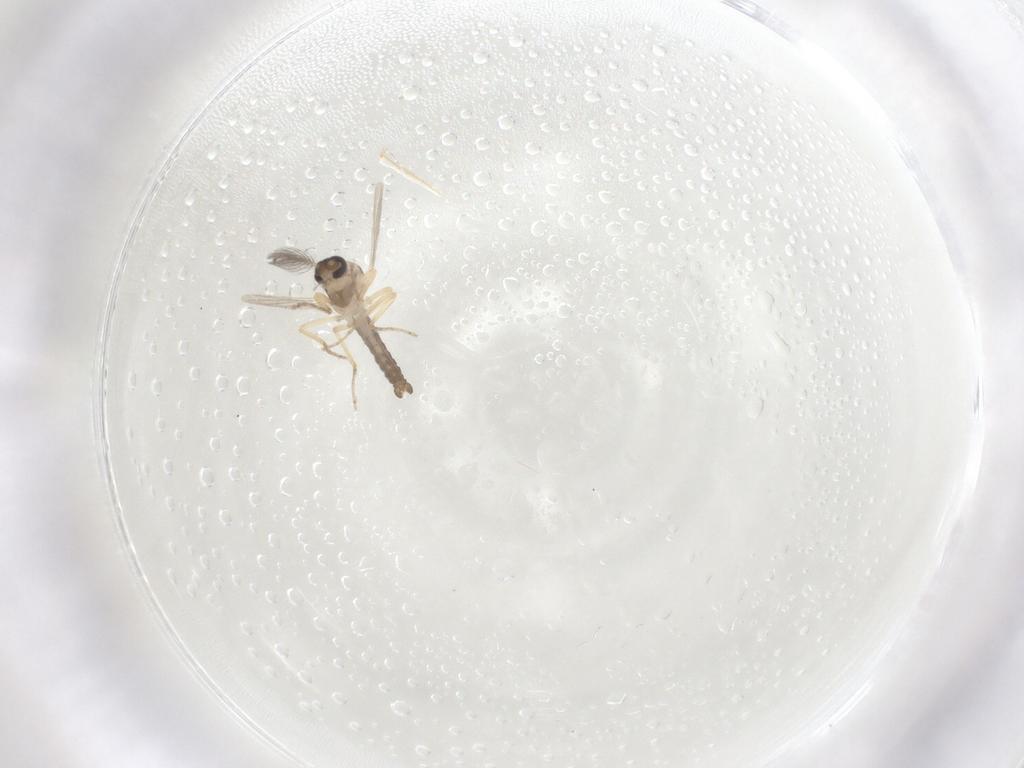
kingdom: Animalia
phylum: Arthropoda
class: Insecta
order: Diptera
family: Ceratopogonidae
